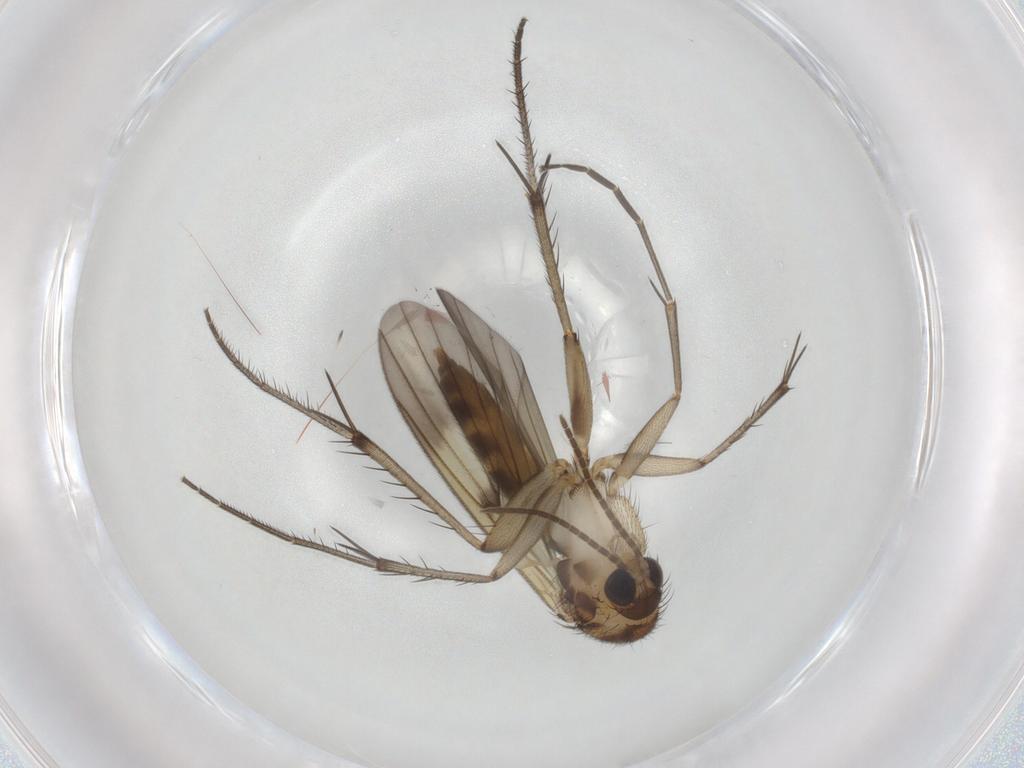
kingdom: Animalia
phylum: Arthropoda
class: Insecta
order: Diptera
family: Mycetophilidae
